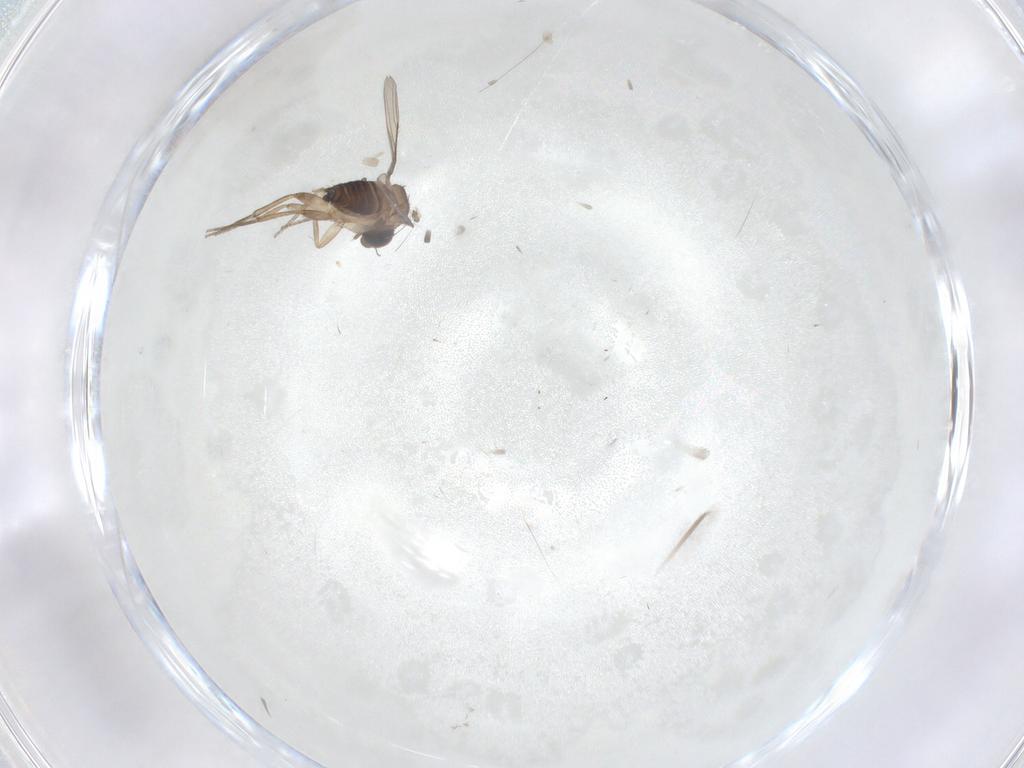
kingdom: Animalia
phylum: Arthropoda
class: Insecta
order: Diptera
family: Phoridae
